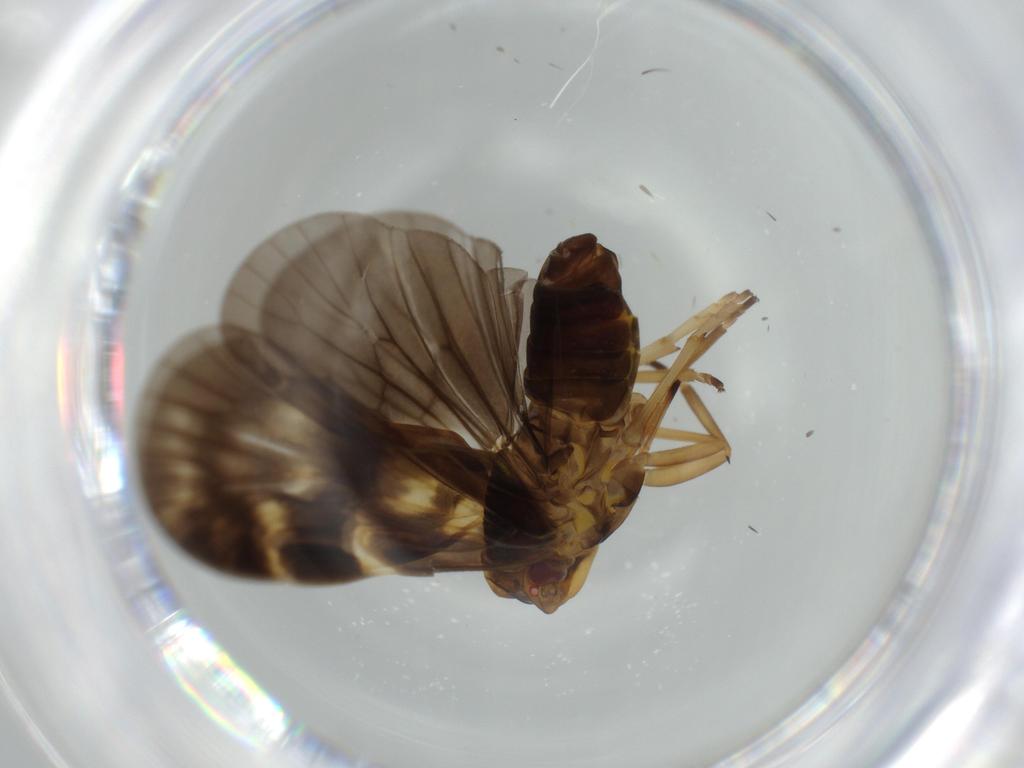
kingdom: Animalia
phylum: Arthropoda
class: Insecta
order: Hemiptera
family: Cixiidae
